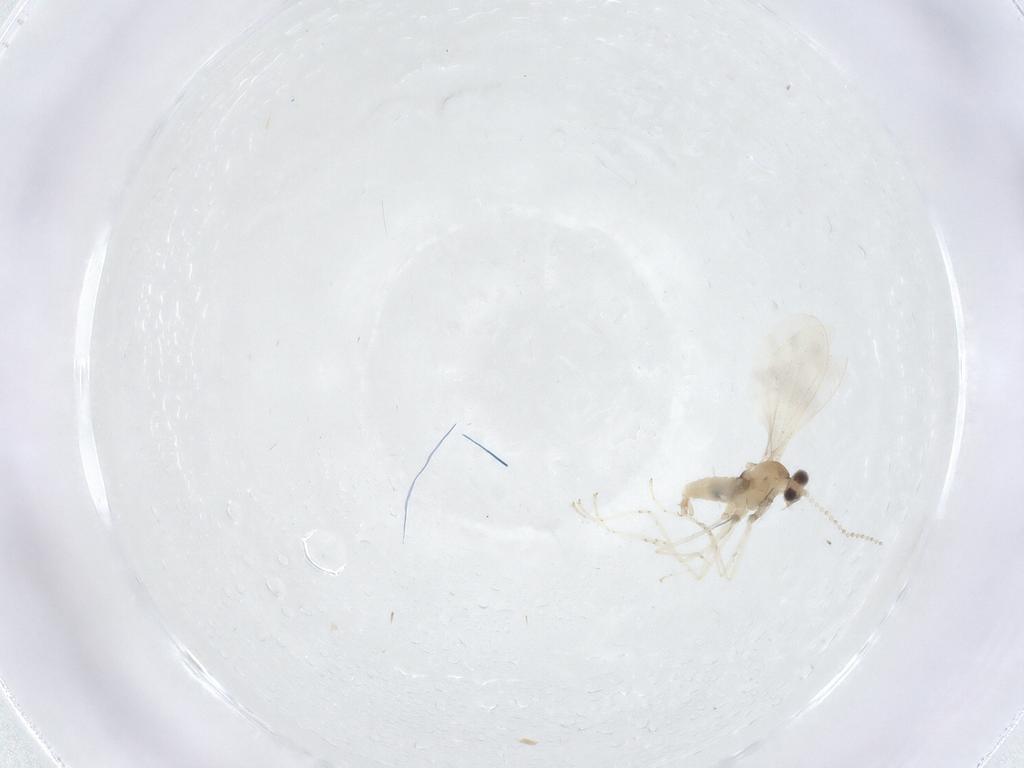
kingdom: Animalia
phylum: Arthropoda
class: Insecta
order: Diptera
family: Cecidomyiidae
